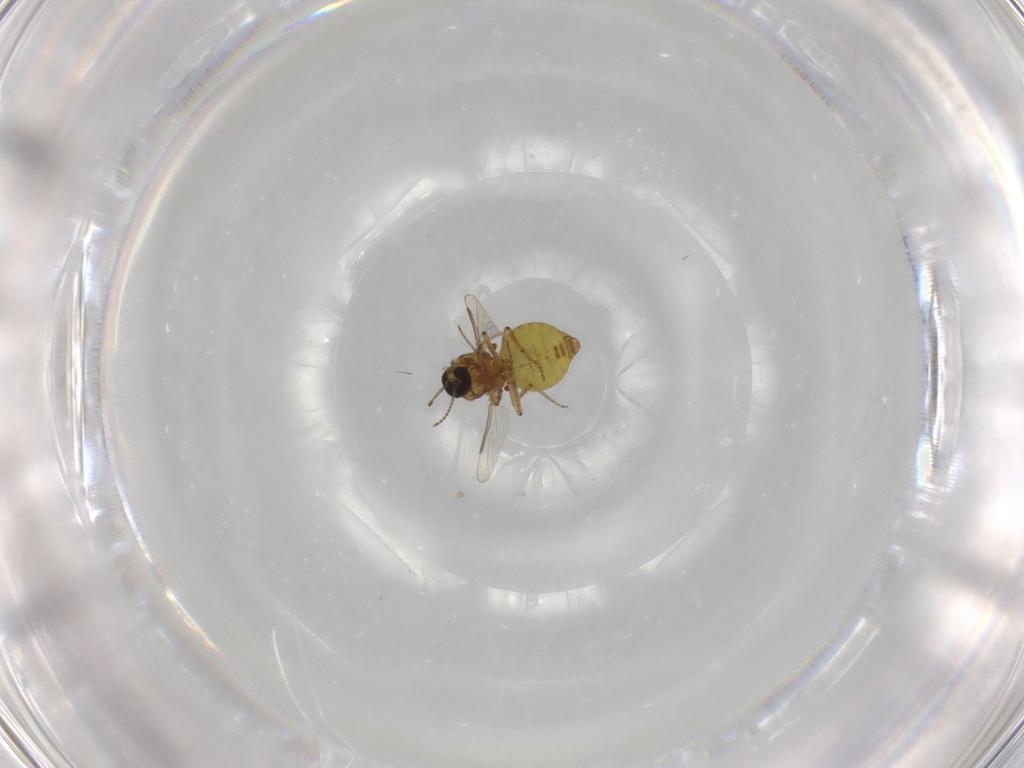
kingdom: Animalia
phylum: Arthropoda
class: Insecta
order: Diptera
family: Ceratopogonidae
